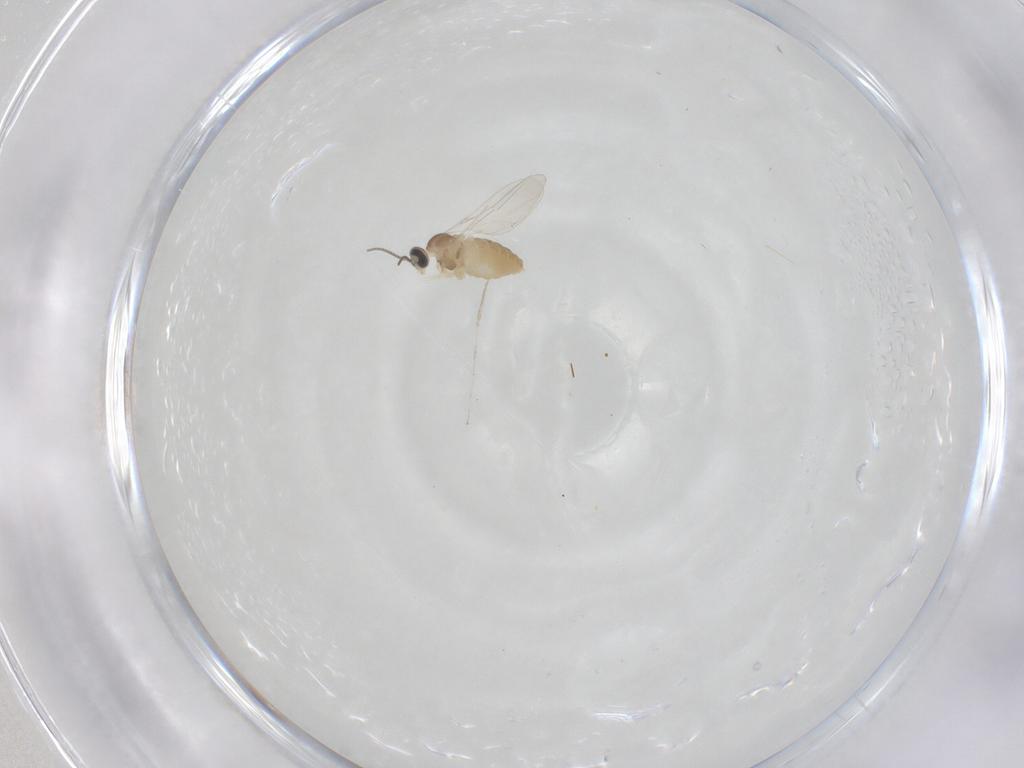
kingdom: Animalia
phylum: Arthropoda
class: Insecta
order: Diptera
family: Cecidomyiidae
